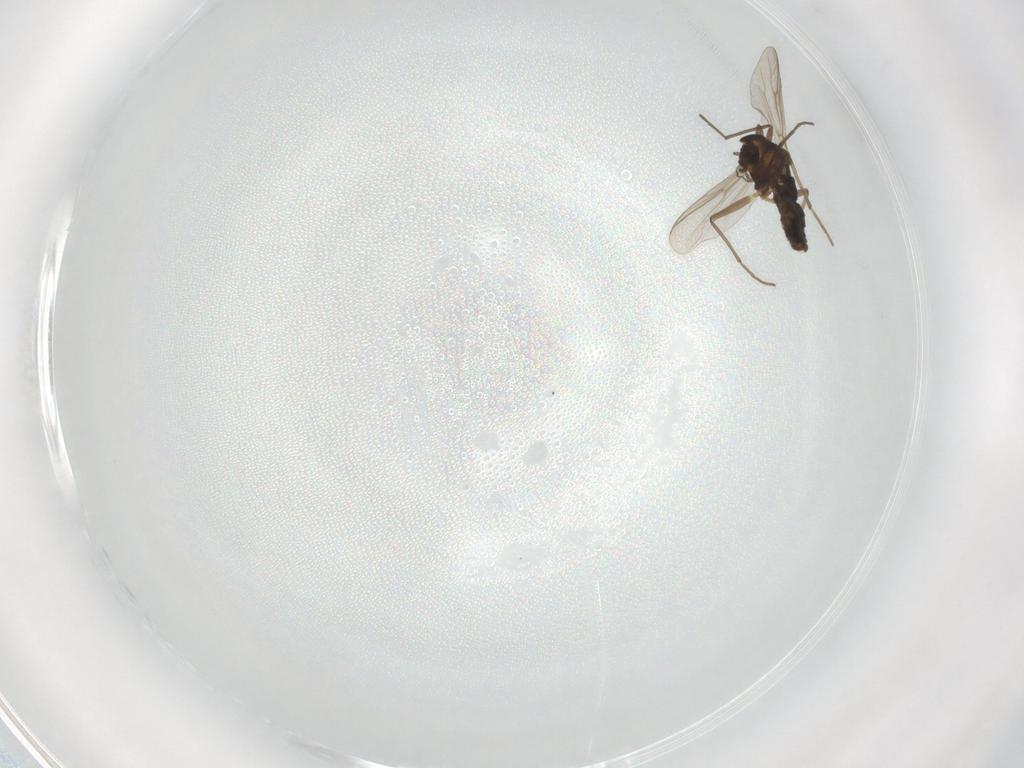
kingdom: Animalia
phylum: Arthropoda
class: Insecta
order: Diptera
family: Chironomidae
